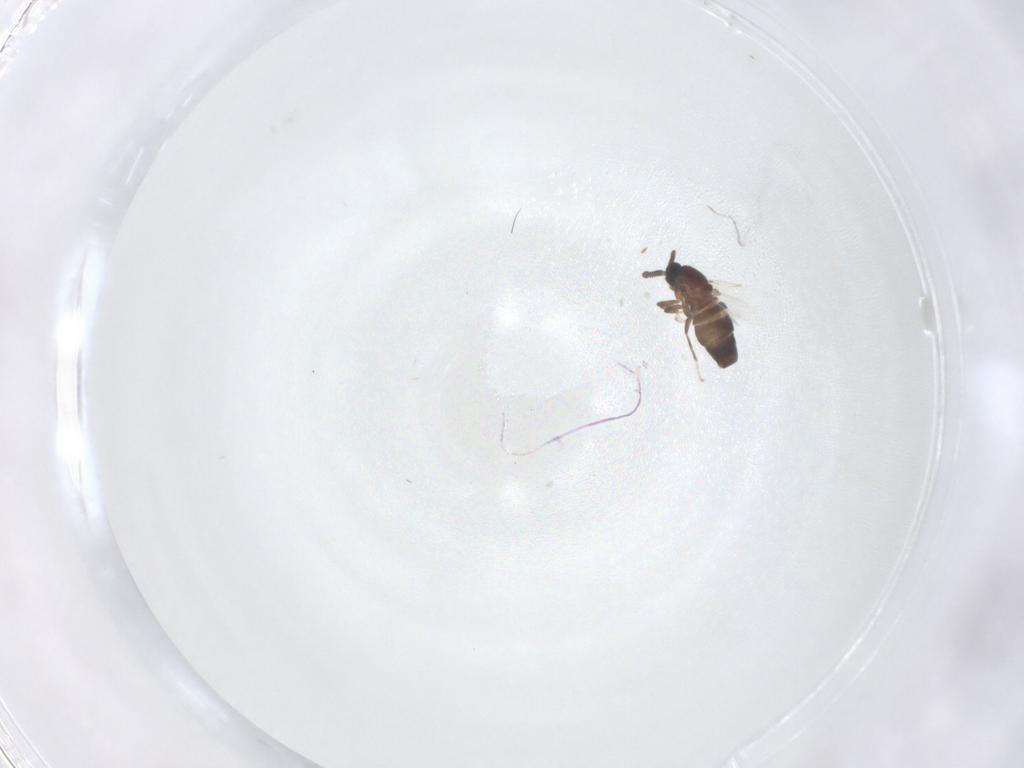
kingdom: Animalia
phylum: Arthropoda
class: Insecta
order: Diptera
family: Scatopsidae
